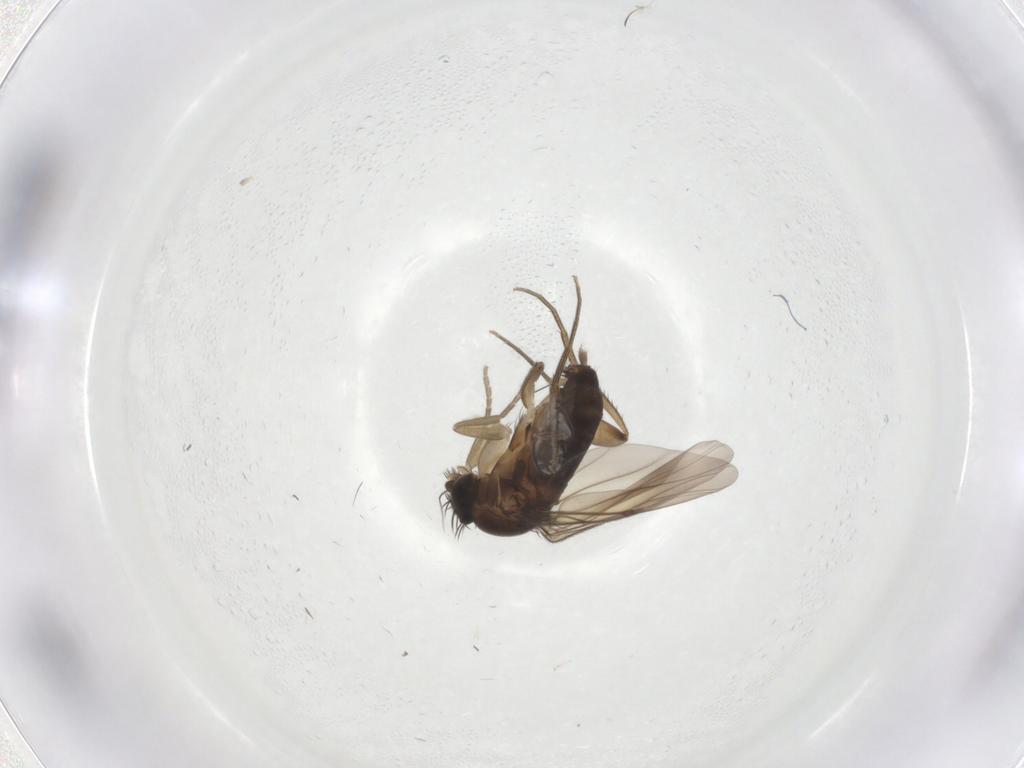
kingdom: Animalia
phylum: Arthropoda
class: Insecta
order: Diptera
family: Phoridae
